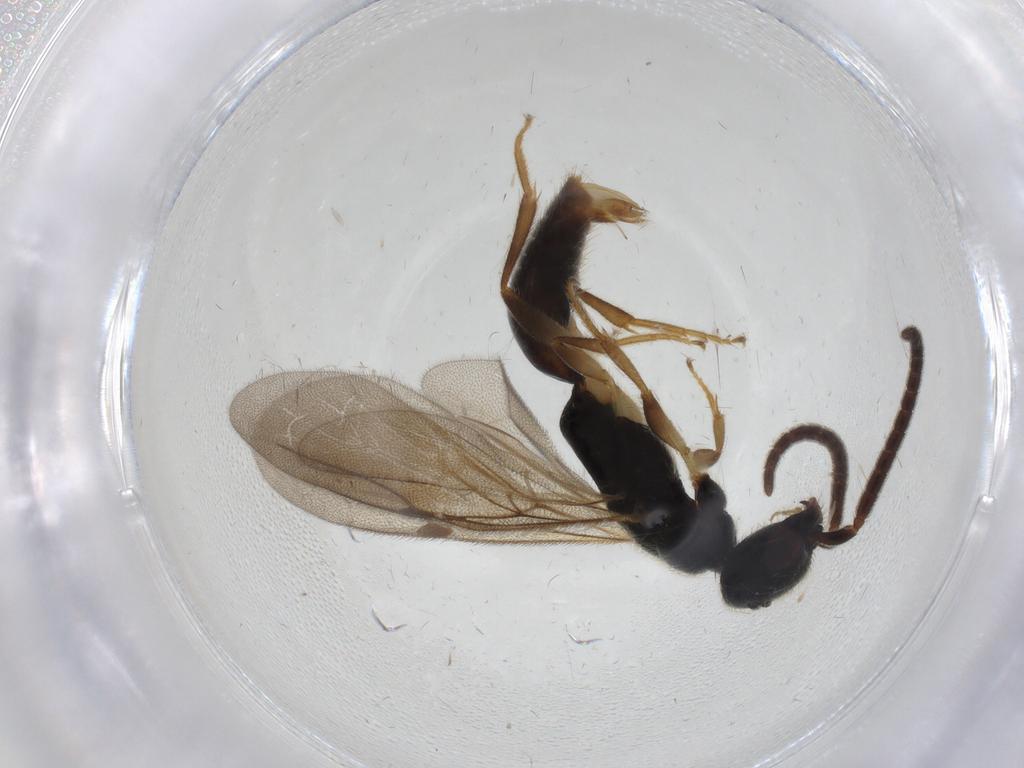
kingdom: Animalia
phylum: Arthropoda
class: Insecta
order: Hymenoptera
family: Bethylidae
